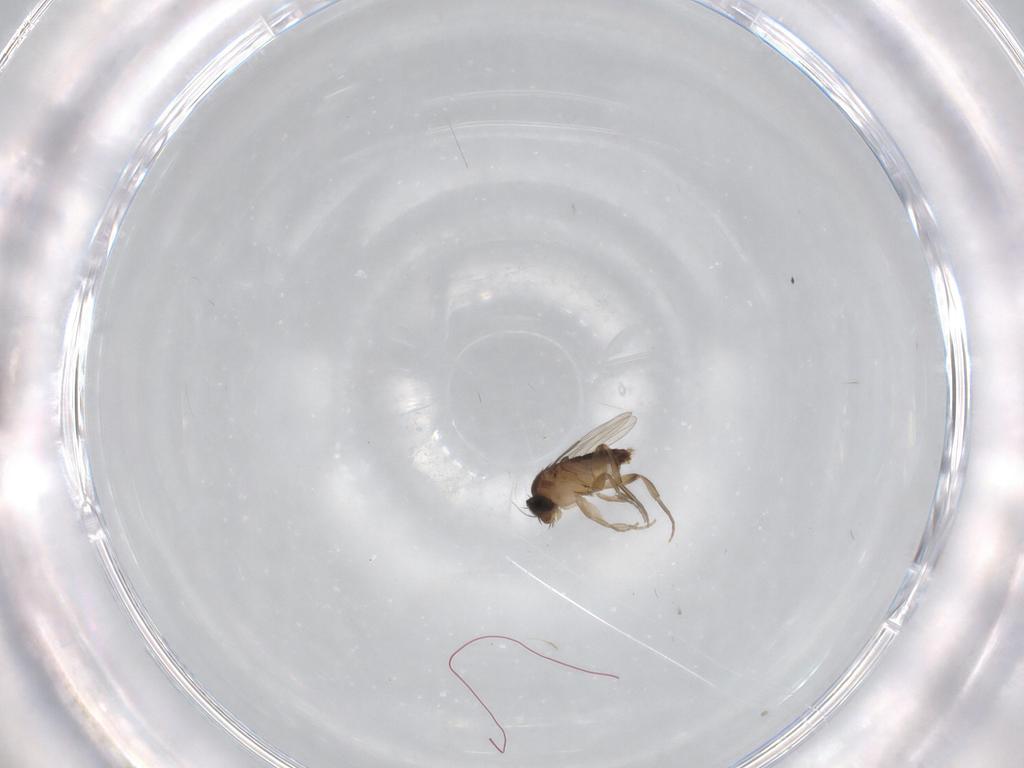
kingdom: Animalia
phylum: Arthropoda
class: Insecta
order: Diptera
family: Cecidomyiidae
